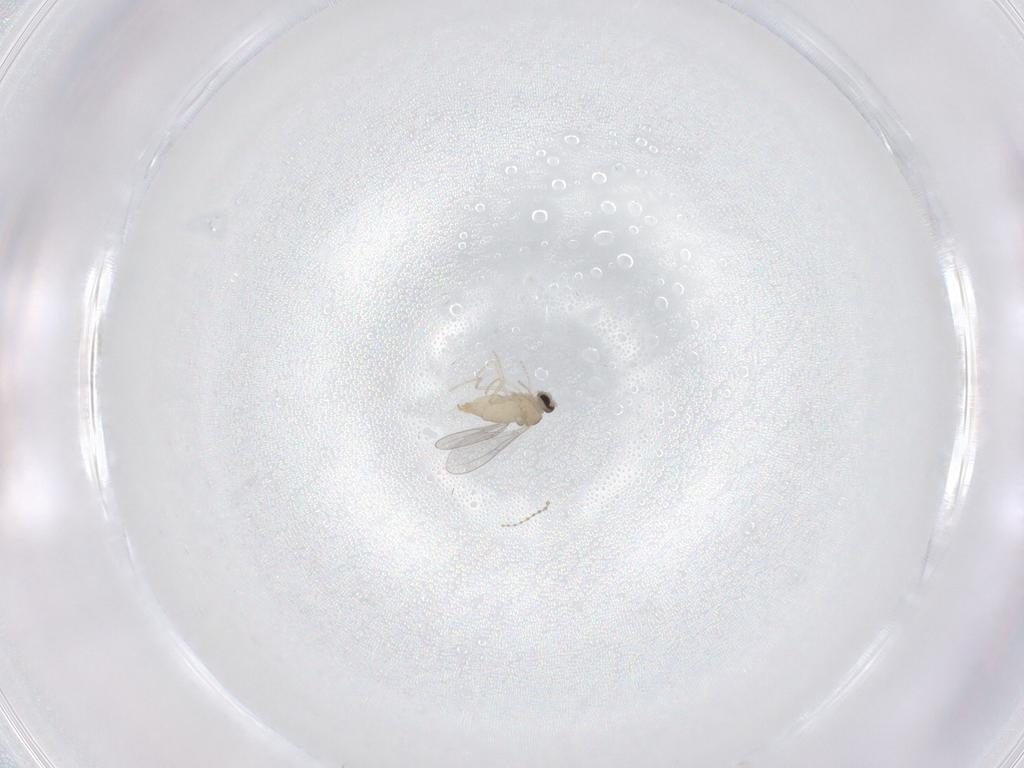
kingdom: Animalia
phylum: Arthropoda
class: Insecta
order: Diptera
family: Cecidomyiidae
